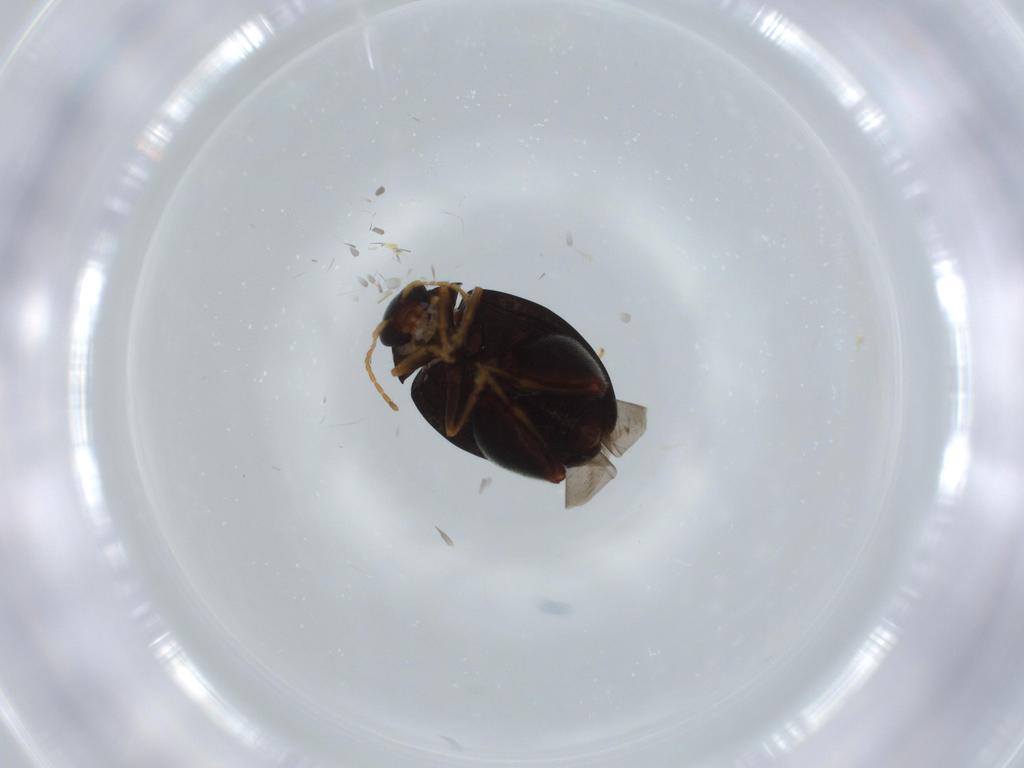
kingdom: Animalia
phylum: Arthropoda
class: Insecta
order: Coleoptera
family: Chrysomelidae
